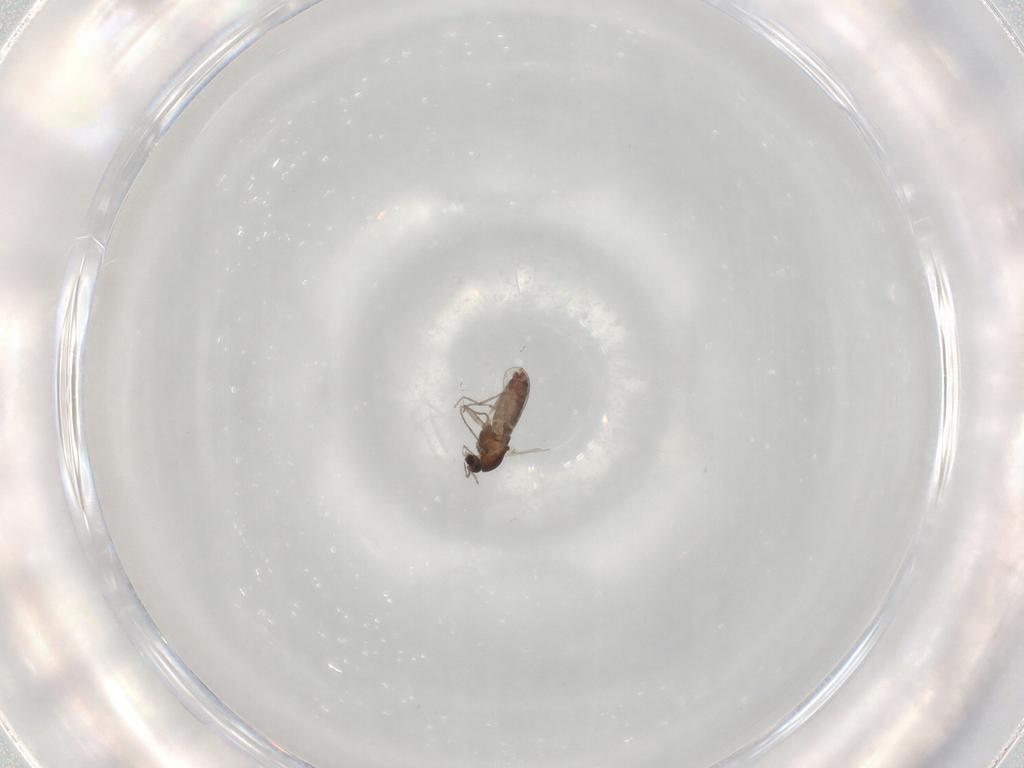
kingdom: Animalia
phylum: Arthropoda
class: Insecta
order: Diptera
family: Chironomidae
